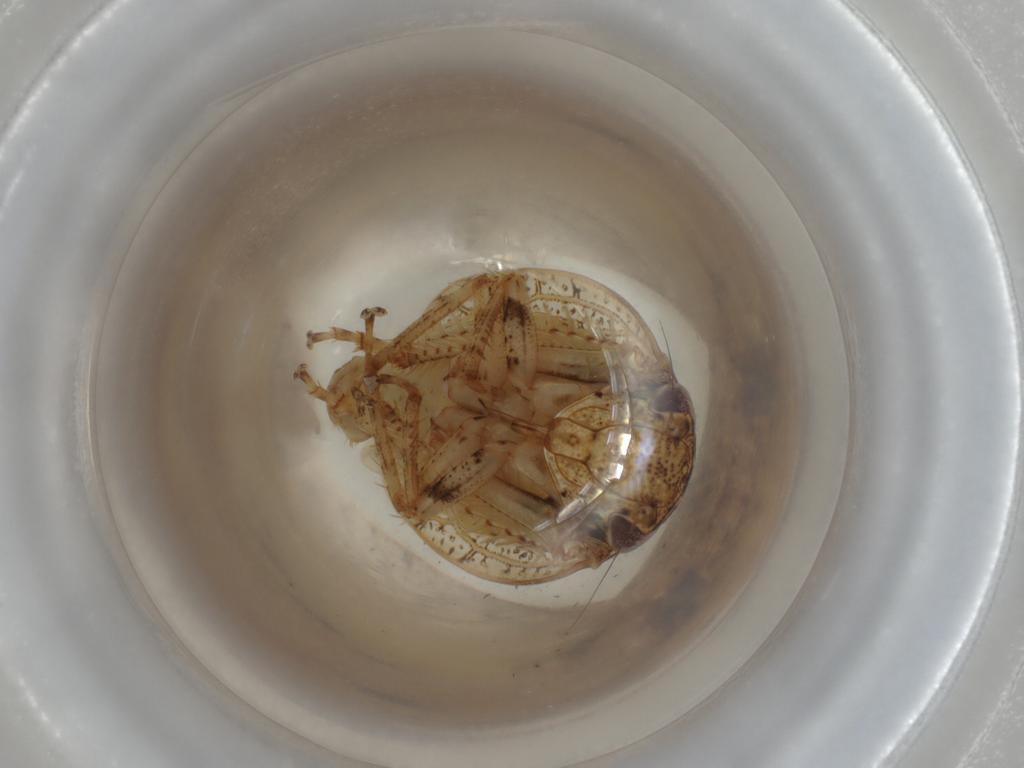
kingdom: Animalia
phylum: Arthropoda
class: Insecta
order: Hemiptera
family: Cicadellidae
